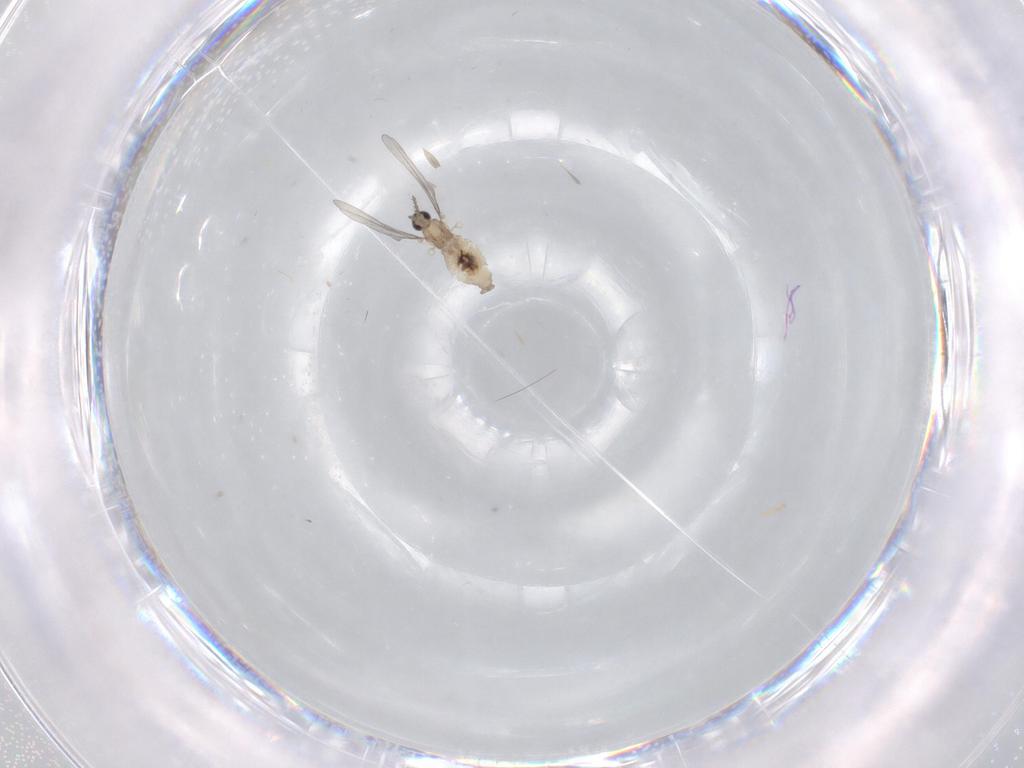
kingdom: Animalia
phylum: Arthropoda
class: Insecta
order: Diptera
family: Cecidomyiidae
